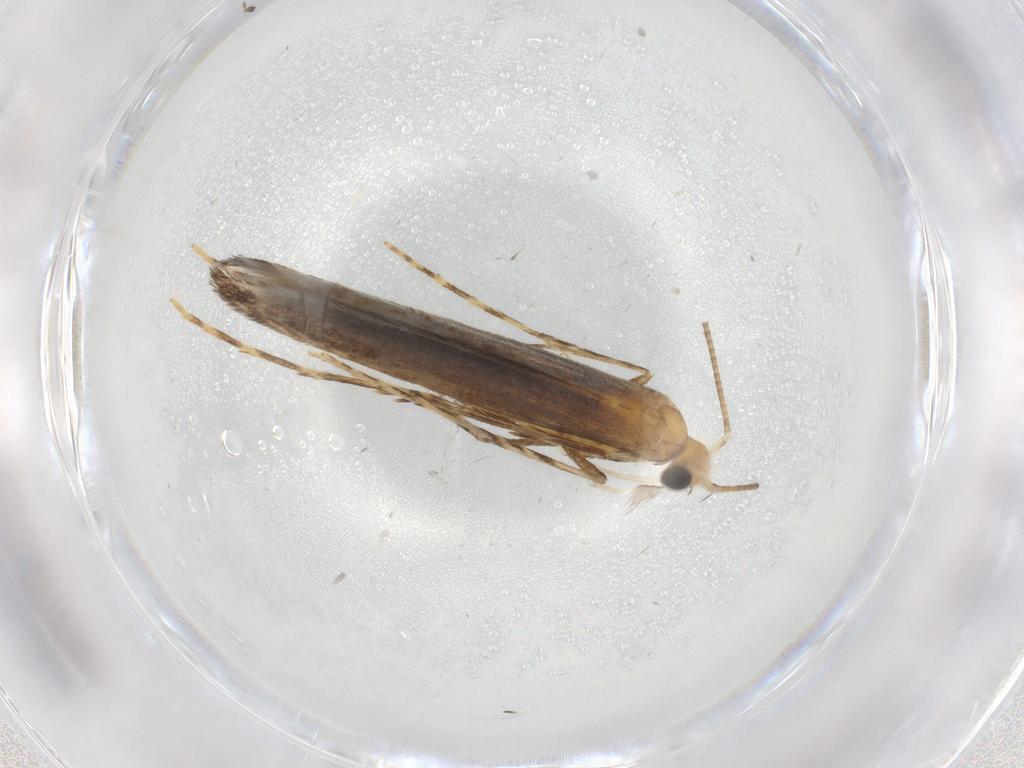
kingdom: Animalia
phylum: Arthropoda
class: Insecta
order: Lepidoptera
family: Gracillariidae
